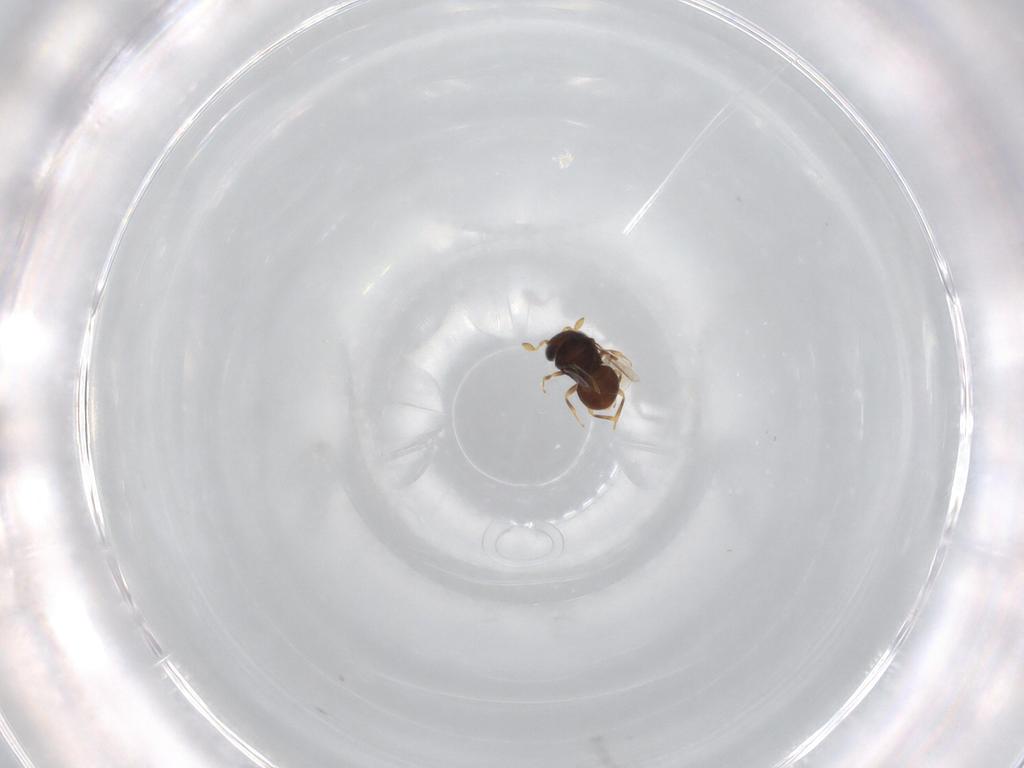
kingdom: Animalia
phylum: Arthropoda
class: Insecta
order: Hymenoptera
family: Scelionidae
